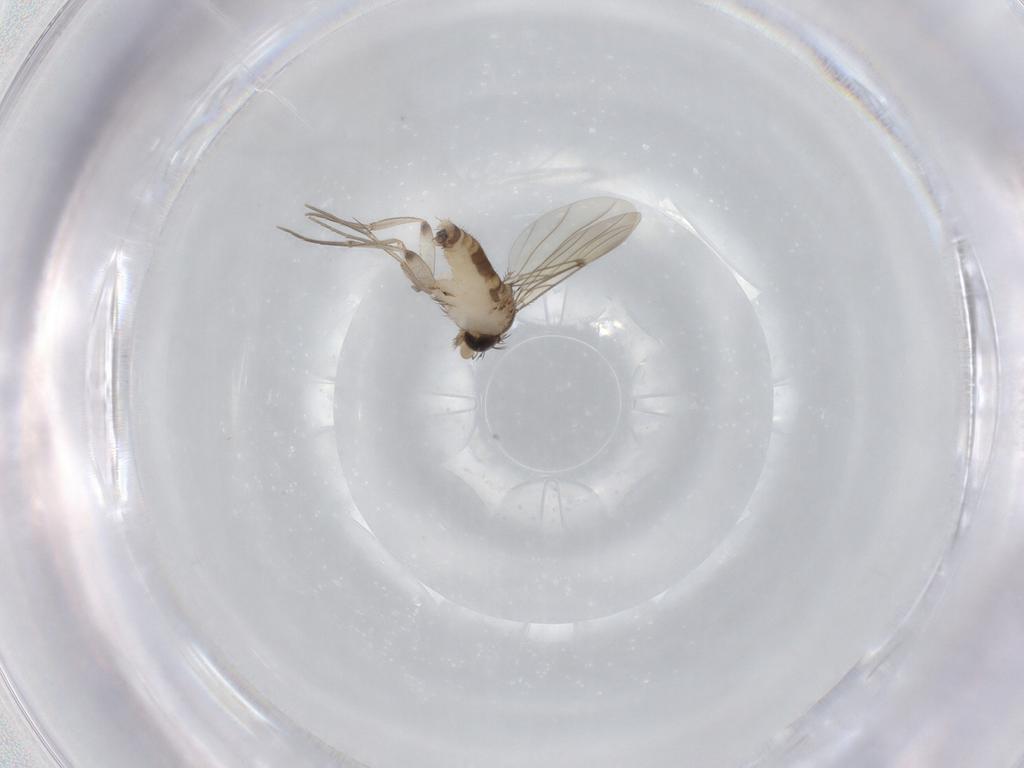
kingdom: Animalia
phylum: Arthropoda
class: Insecta
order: Diptera
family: Phoridae
